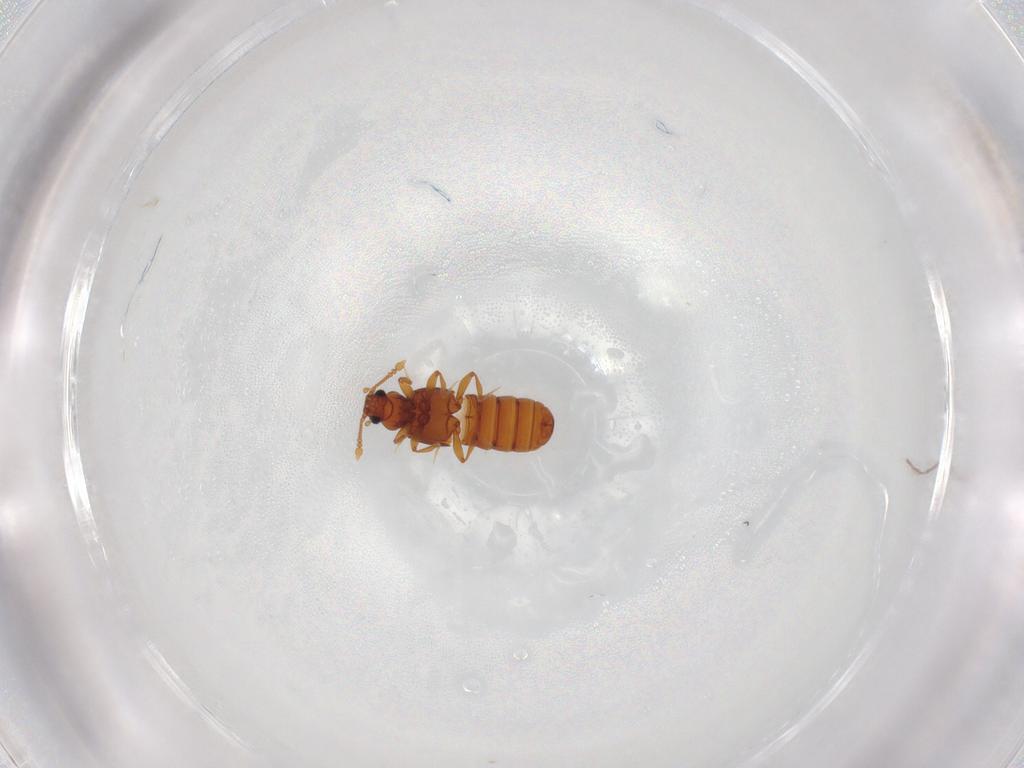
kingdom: Animalia
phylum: Arthropoda
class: Insecta
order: Coleoptera
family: Staphylinidae
